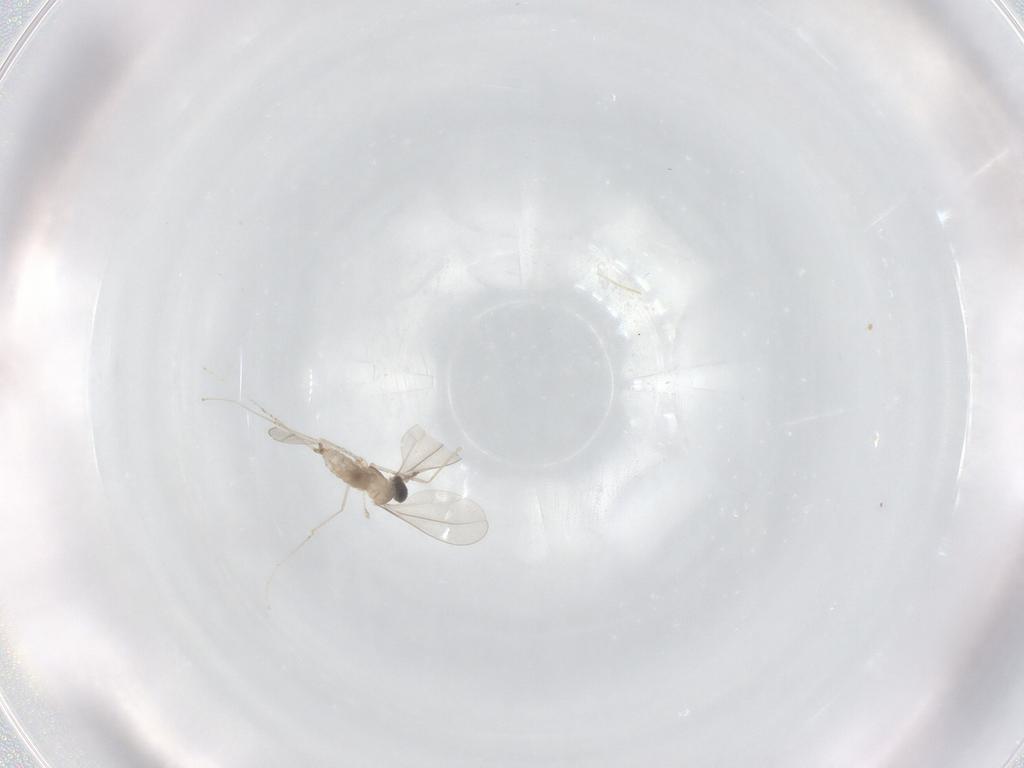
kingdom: Animalia
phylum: Arthropoda
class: Insecta
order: Diptera
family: Cecidomyiidae
